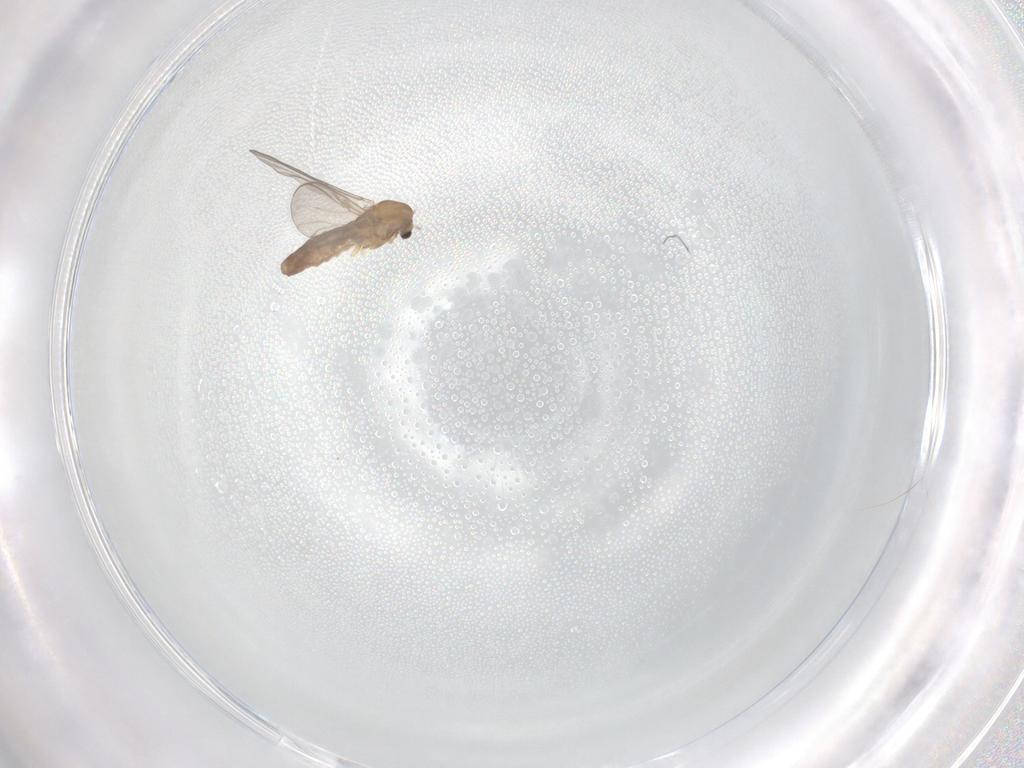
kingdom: Animalia
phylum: Arthropoda
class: Insecta
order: Diptera
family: Chironomidae
